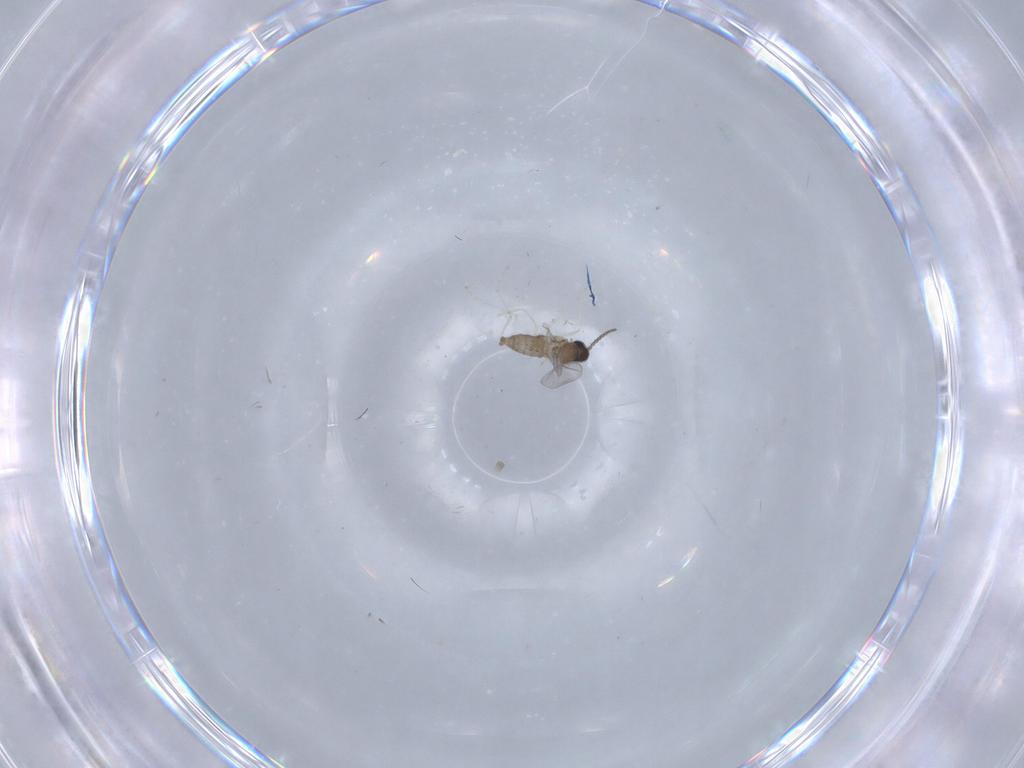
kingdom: Animalia
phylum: Arthropoda
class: Insecta
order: Diptera
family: Cecidomyiidae
